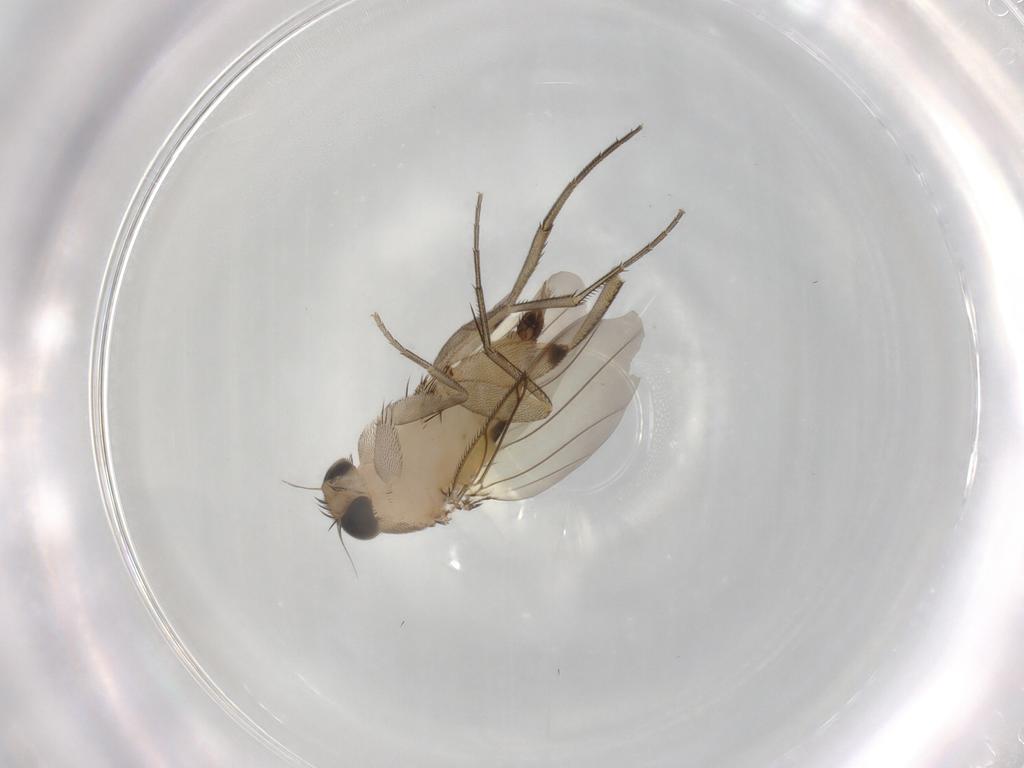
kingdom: Animalia
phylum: Arthropoda
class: Insecta
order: Diptera
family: Phoridae
